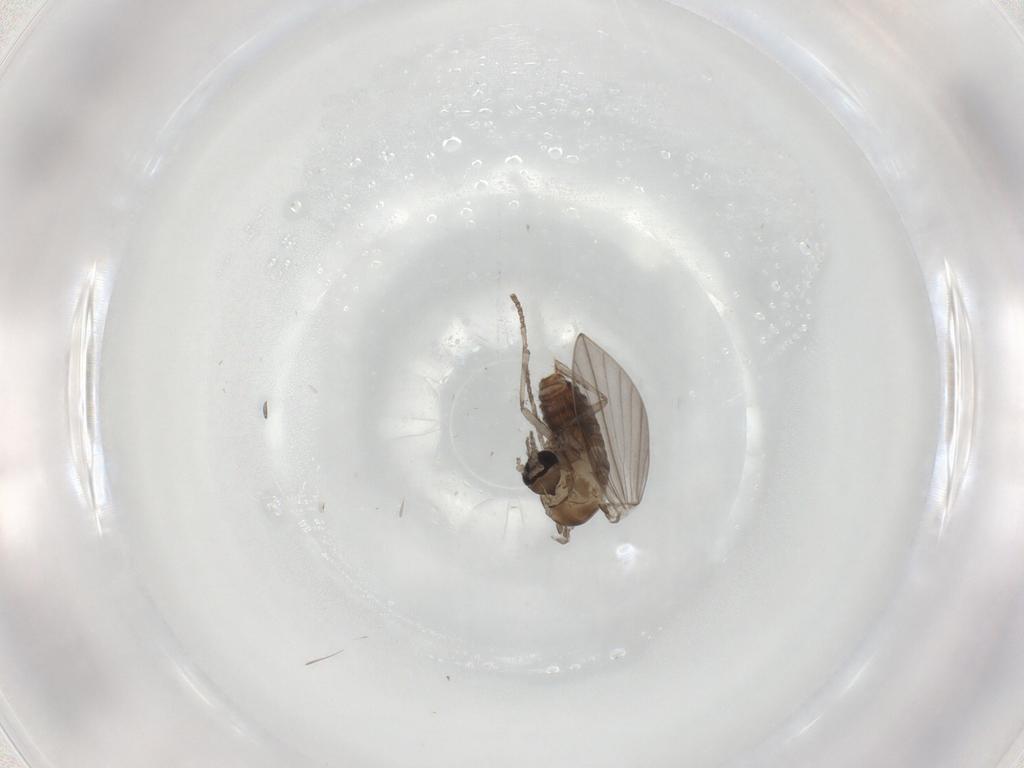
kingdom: Animalia
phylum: Arthropoda
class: Insecta
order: Diptera
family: Psychodidae
